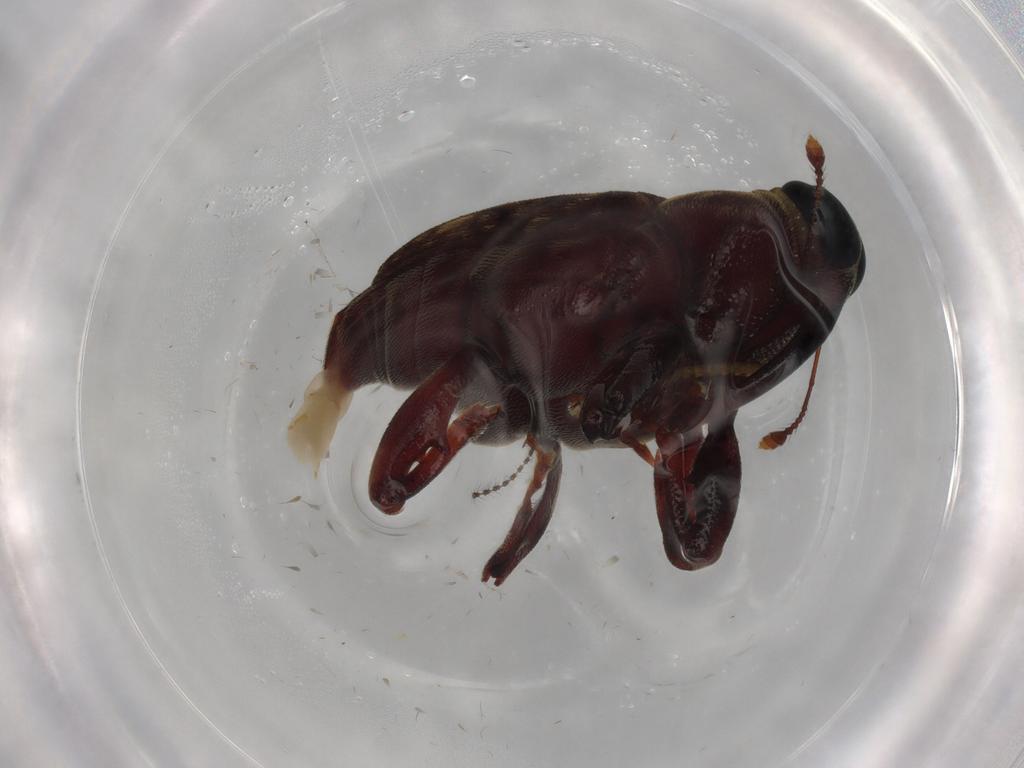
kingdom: Animalia
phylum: Arthropoda
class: Insecta
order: Coleoptera
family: Curculionidae
